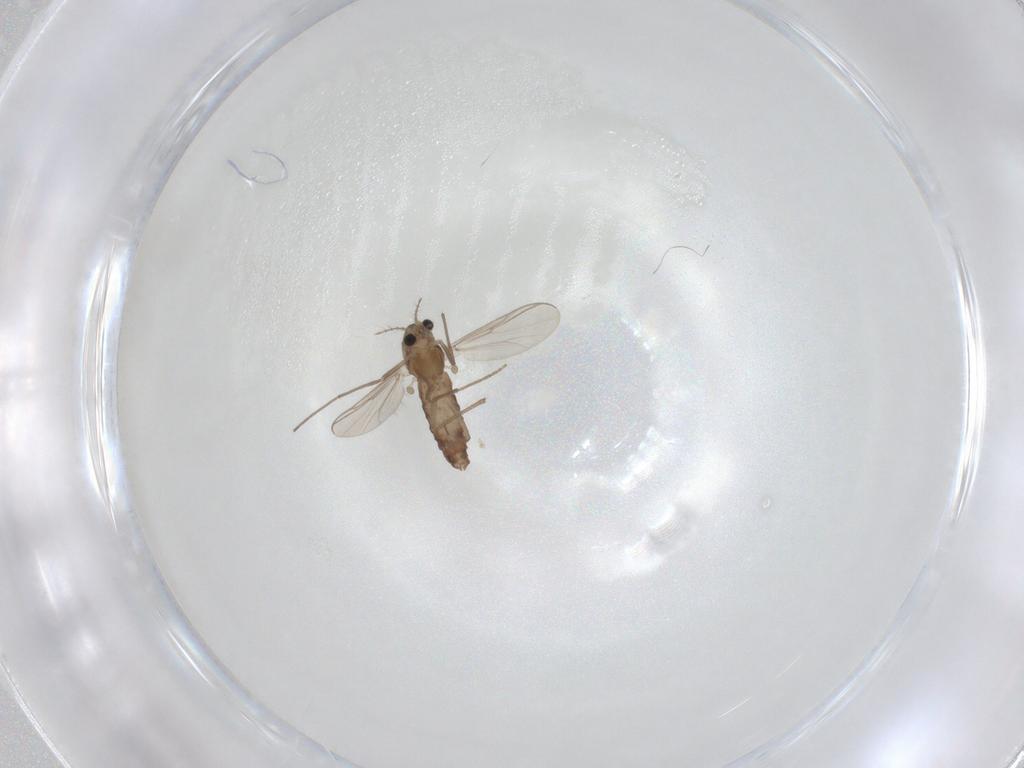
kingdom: Animalia
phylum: Arthropoda
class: Insecta
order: Diptera
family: Chironomidae
